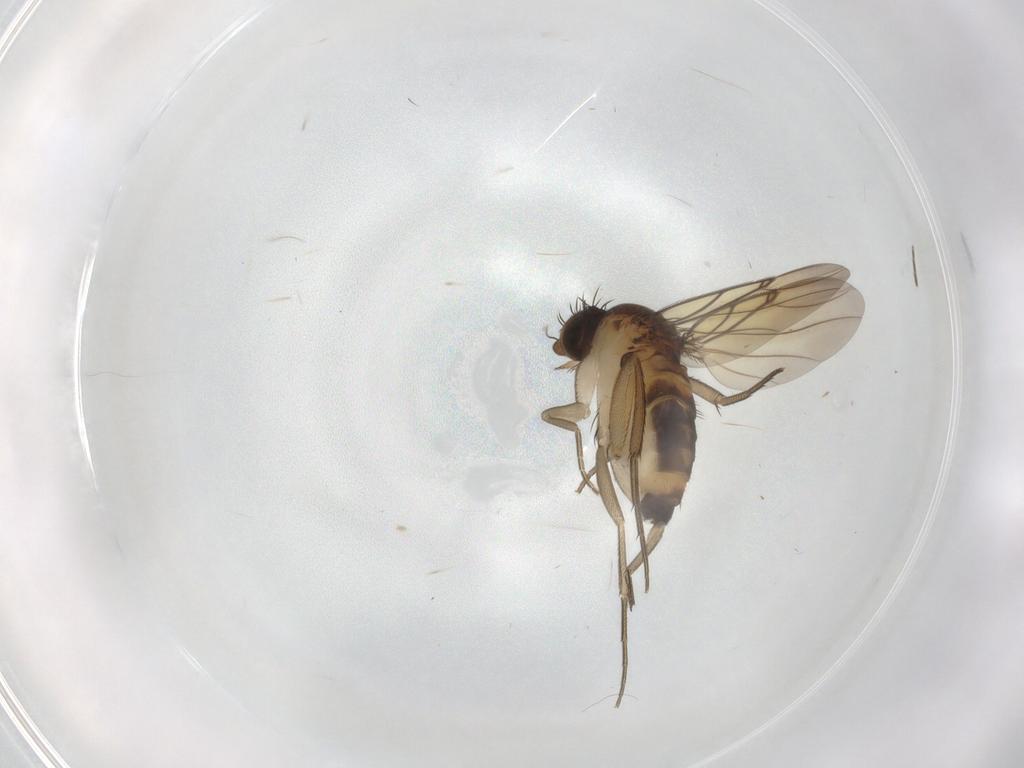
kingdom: Animalia
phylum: Arthropoda
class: Insecta
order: Diptera
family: Phoridae
